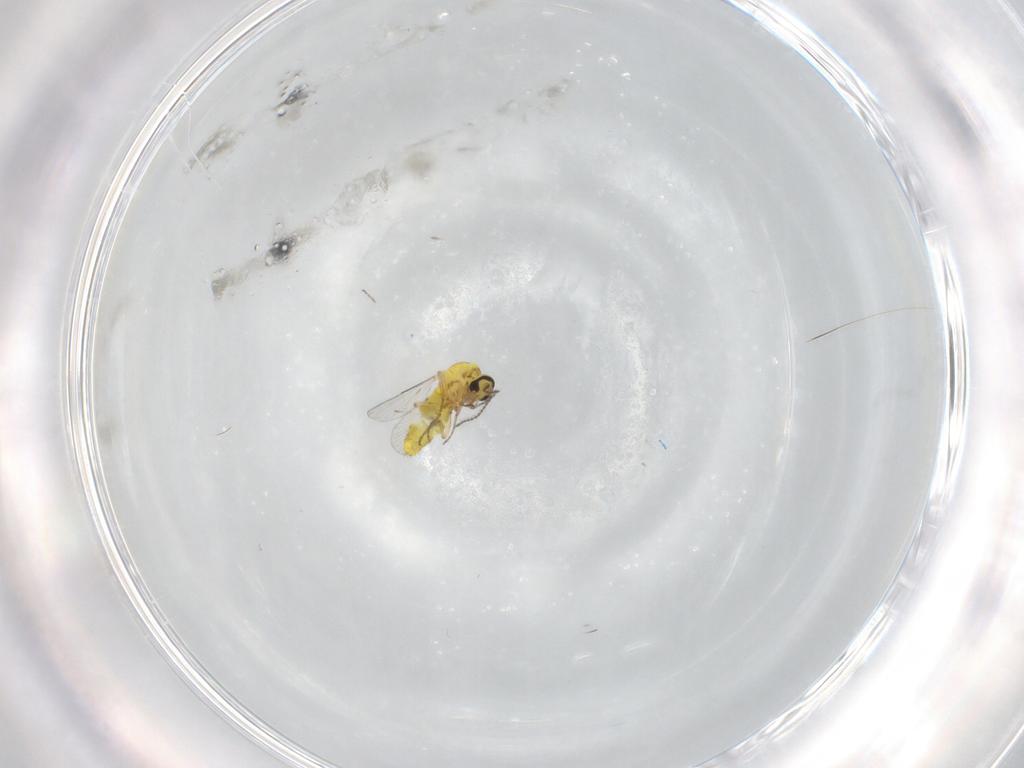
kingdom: Animalia
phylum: Arthropoda
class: Insecta
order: Diptera
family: Ceratopogonidae
